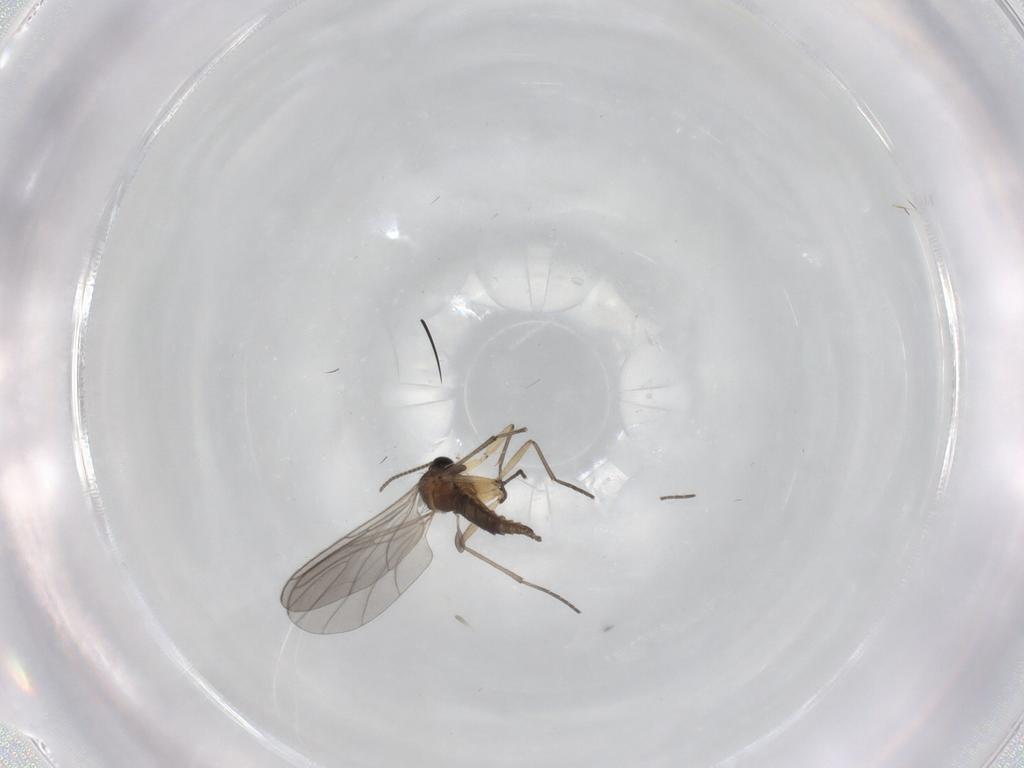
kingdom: Animalia
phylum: Arthropoda
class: Insecta
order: Diptera
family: Sciaridae
